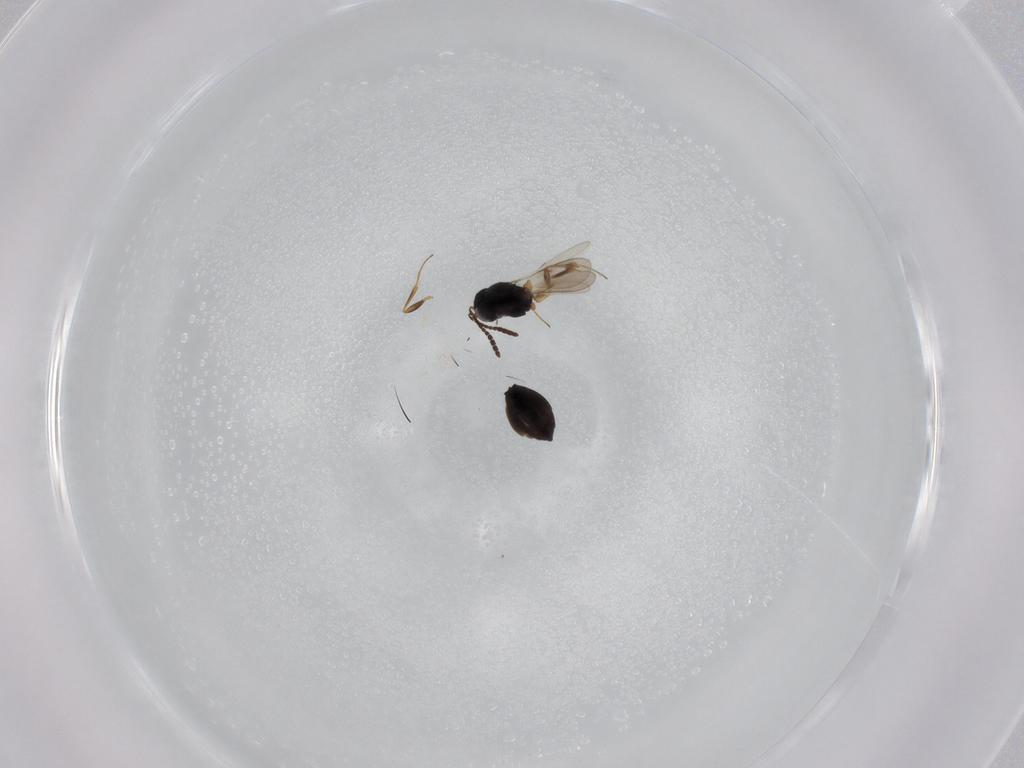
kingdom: Animalia
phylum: Arthropoda
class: Insecta
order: Hymenoptera
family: Scelionidae
